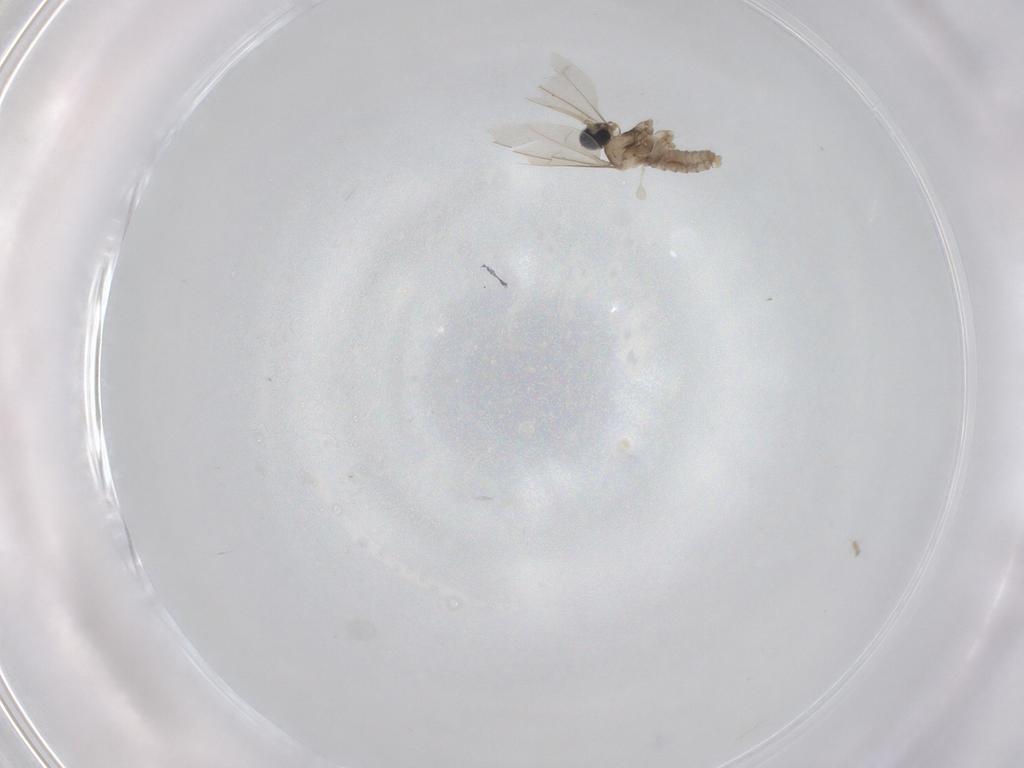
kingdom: Animalia
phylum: Arthropoda
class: Insecta
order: Diptera
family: Cecidomyiidae
